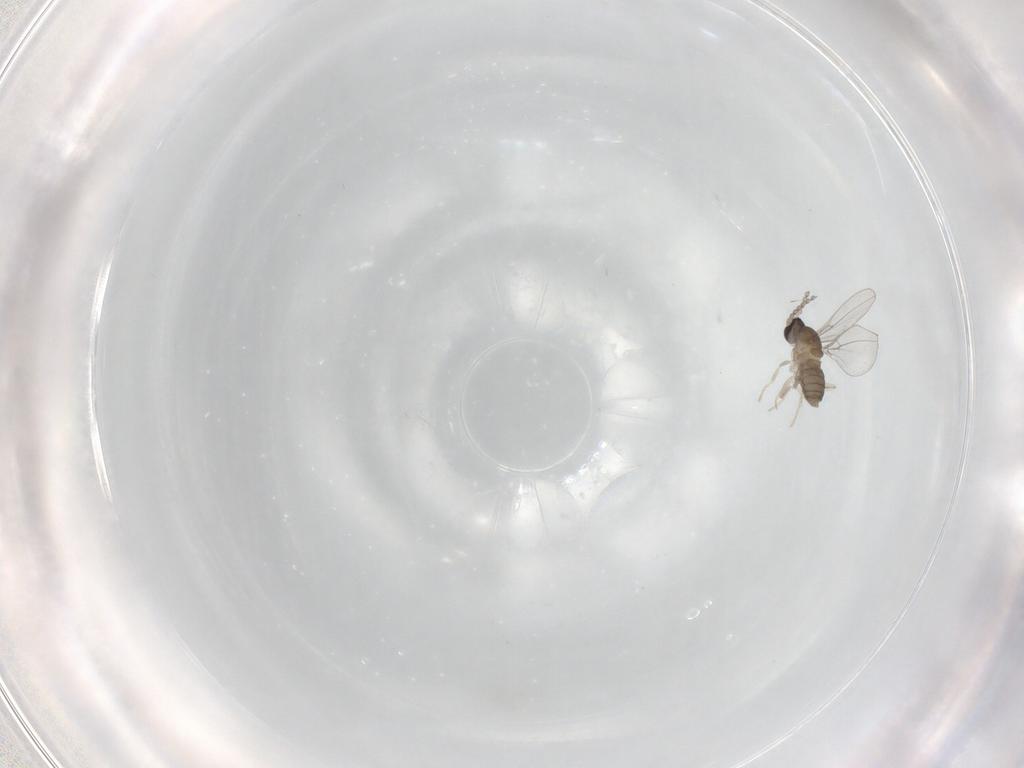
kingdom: Animalia
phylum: Arthropoda
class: Insecta
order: Diptera
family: Cecidomyiidae
